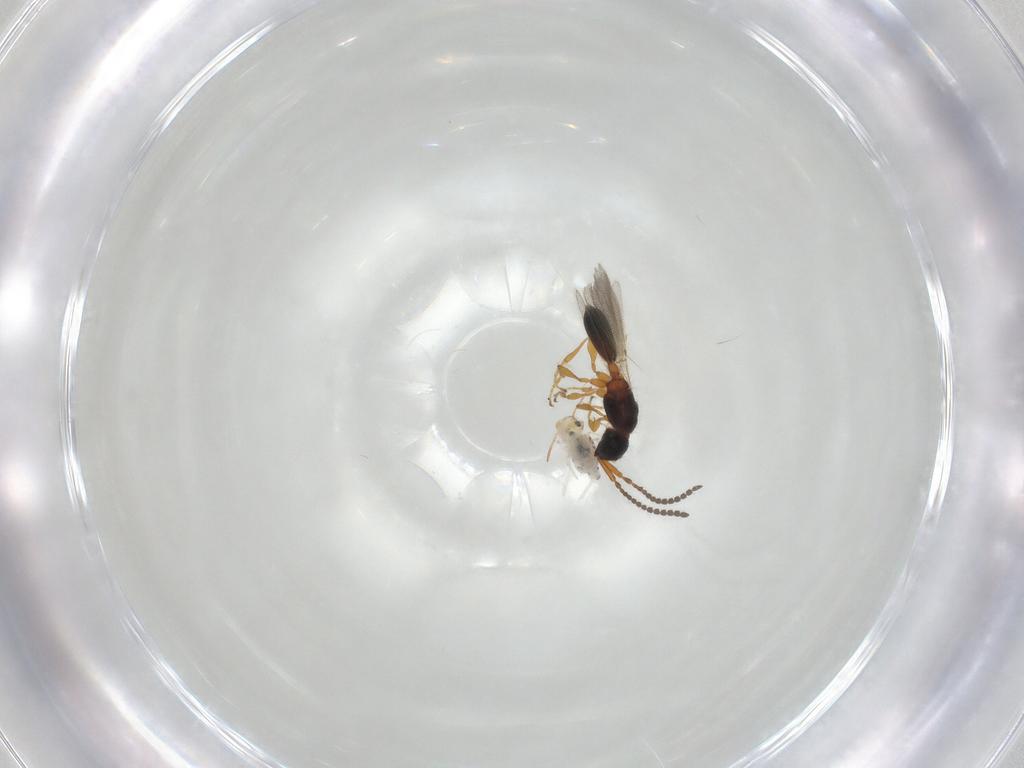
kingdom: Animalia
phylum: Arthropoda
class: Insecta
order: Hymenoptera
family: Diapriidae
